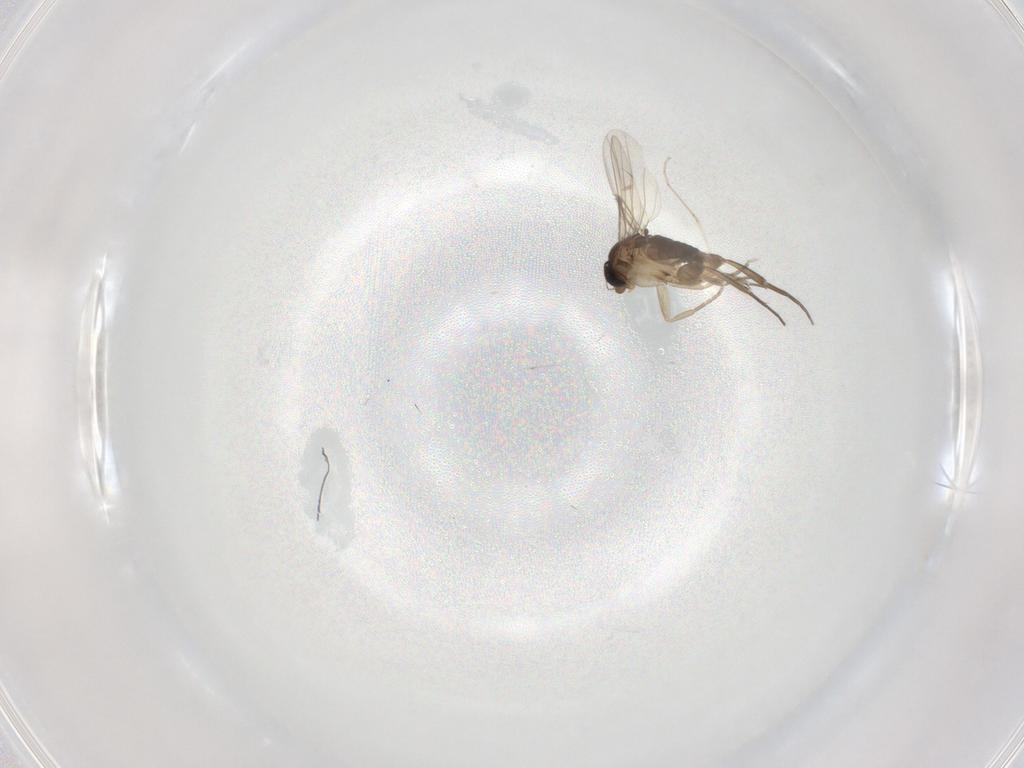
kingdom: Animalia
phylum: Arthropoda
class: Insecta
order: Diptera
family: Phoridae
